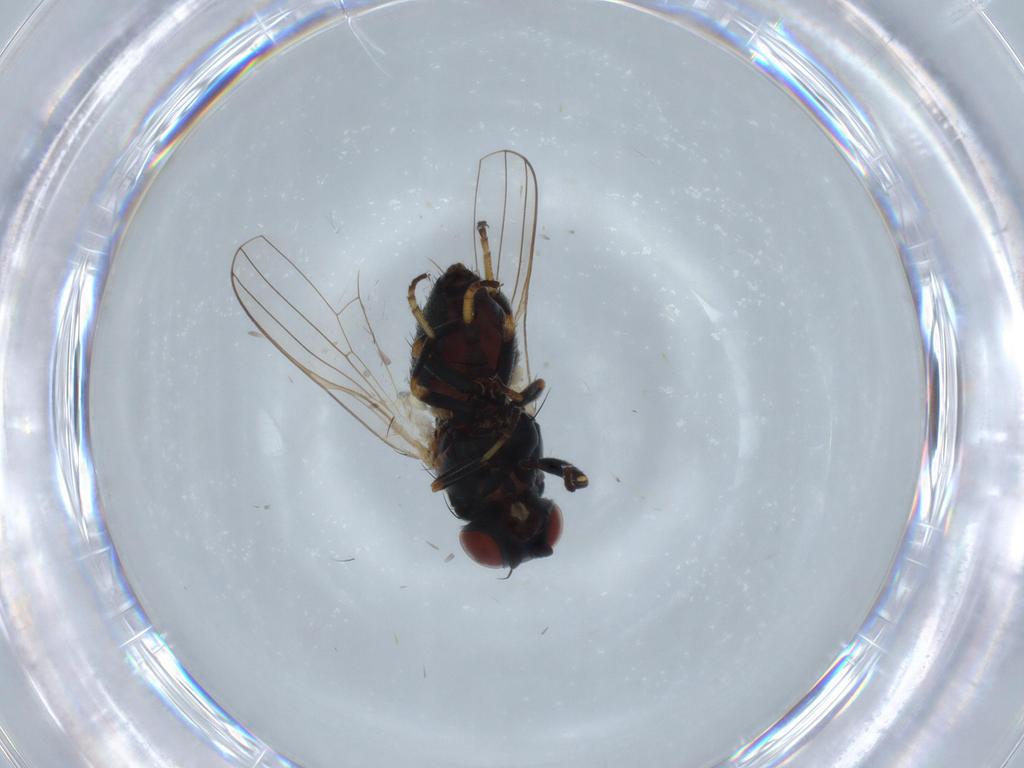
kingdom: Animalia
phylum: Arthropoda
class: Insecta
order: Diptera
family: Chamaemyiidae
